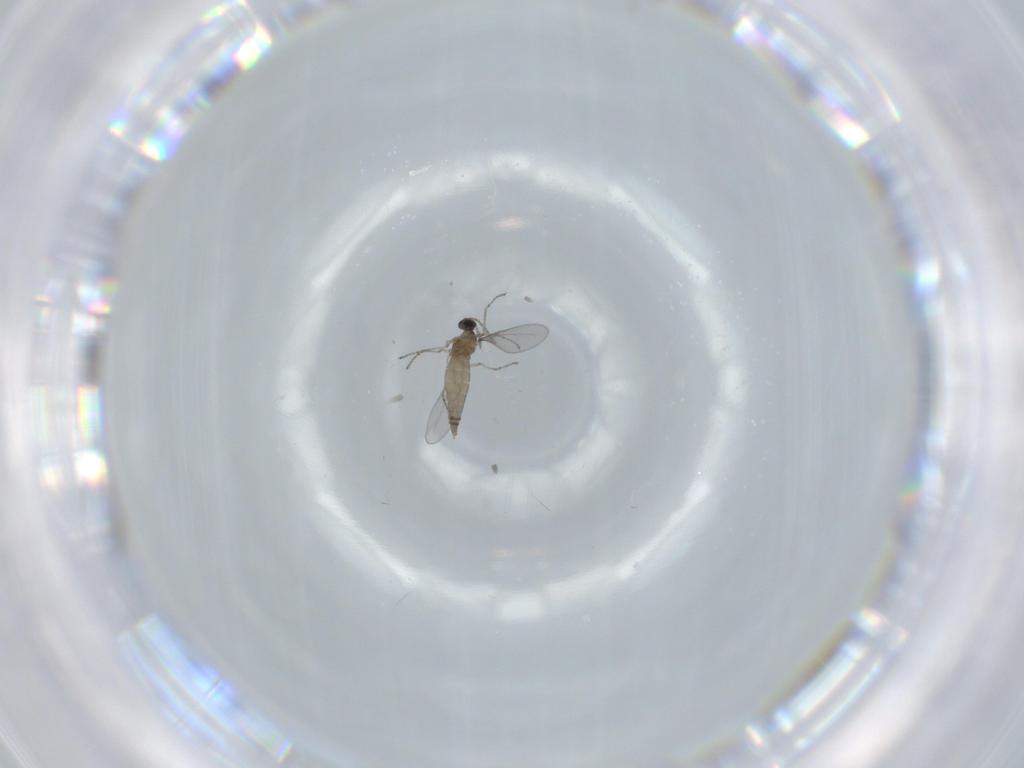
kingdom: Animalia
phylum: Arthropoda
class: Insecta
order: Diptera
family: Cecidomyiidae
